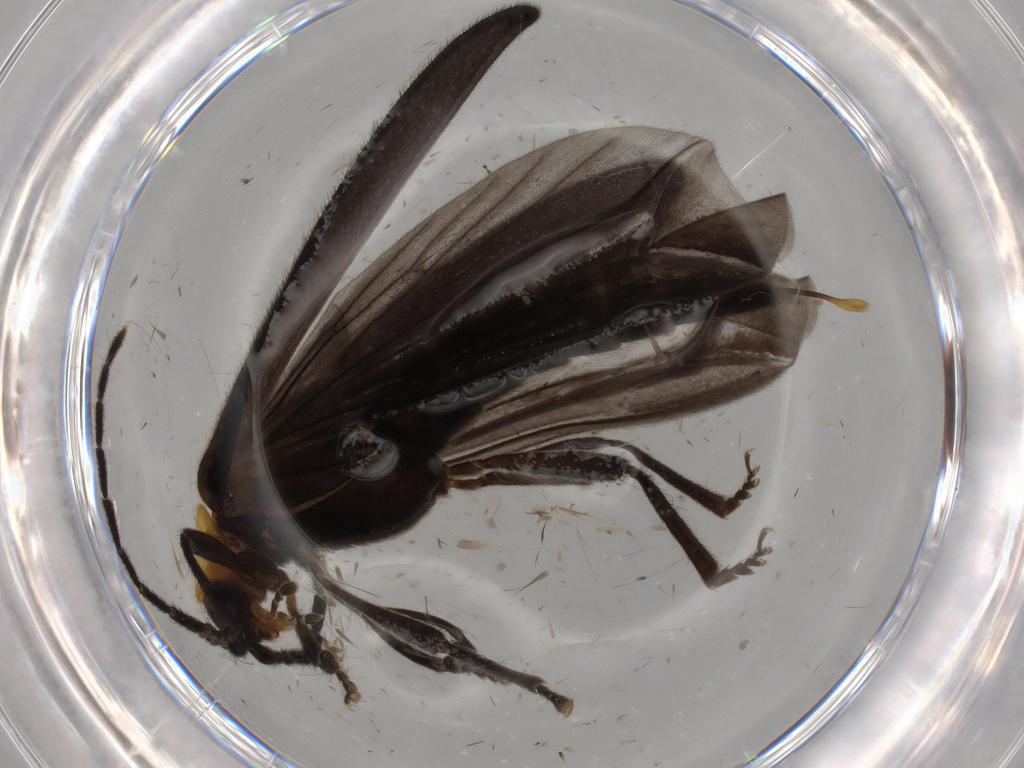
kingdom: Animalia
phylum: Arthropoda
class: Insecta
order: Coleoptera
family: Lycidae
